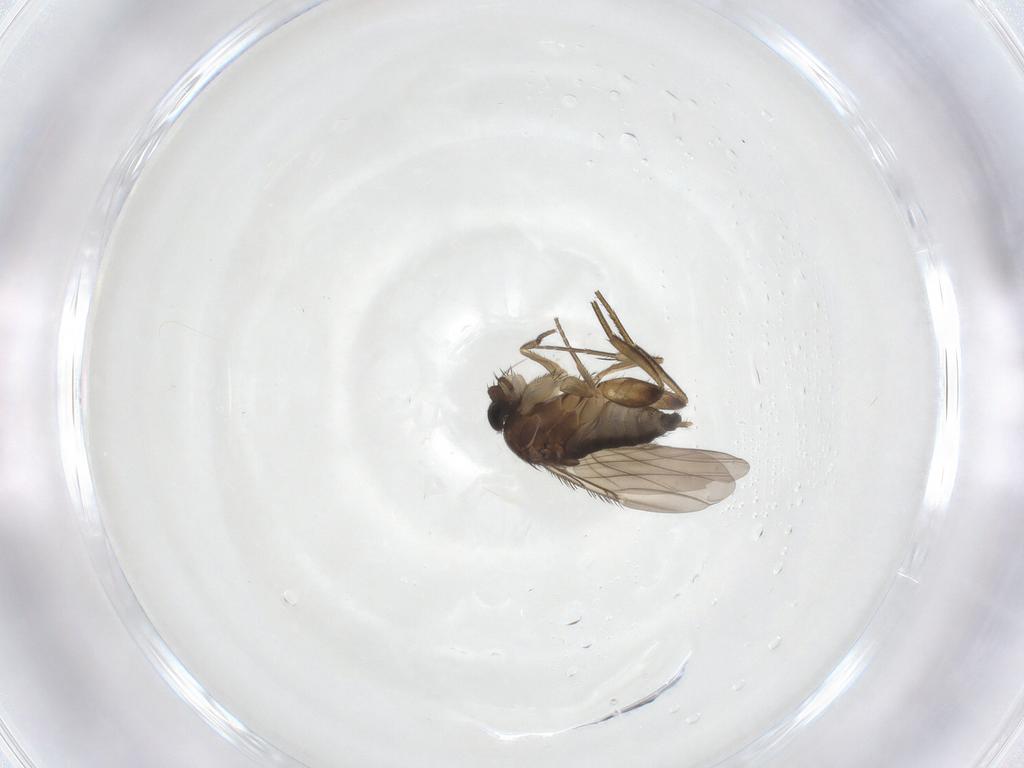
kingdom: Animalia
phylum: Arthropoda
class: Insecta
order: Diptera
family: Phoridae
